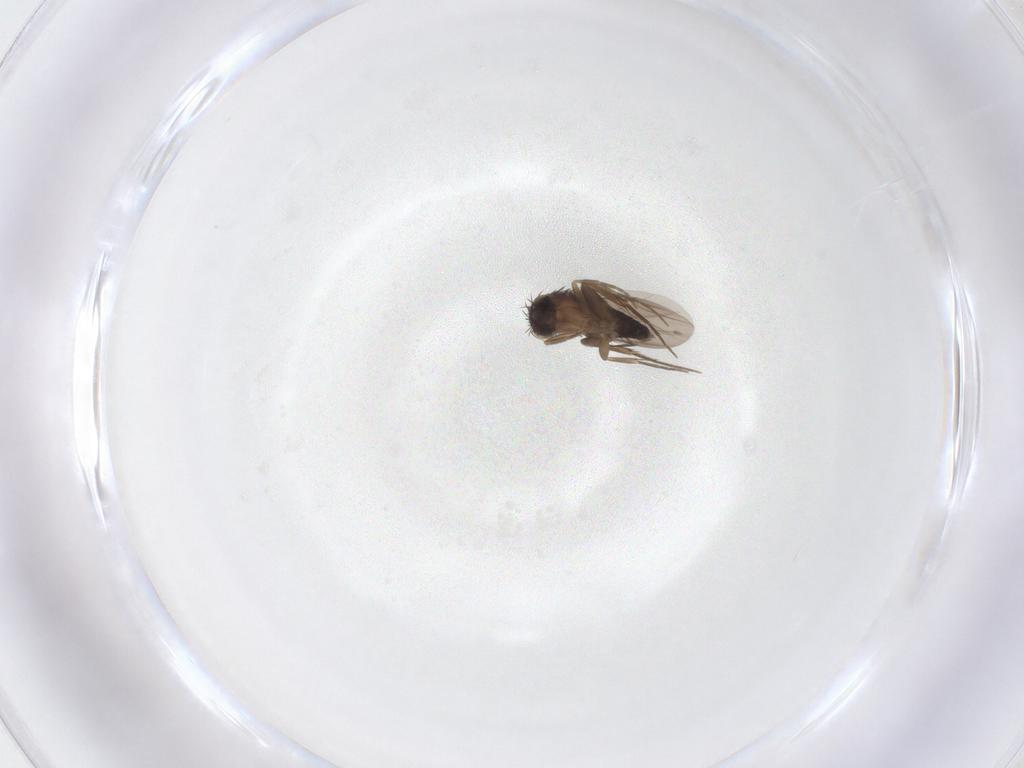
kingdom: Animalia
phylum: Arthropoda
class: Insecta
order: Diptera
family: Phoridae
